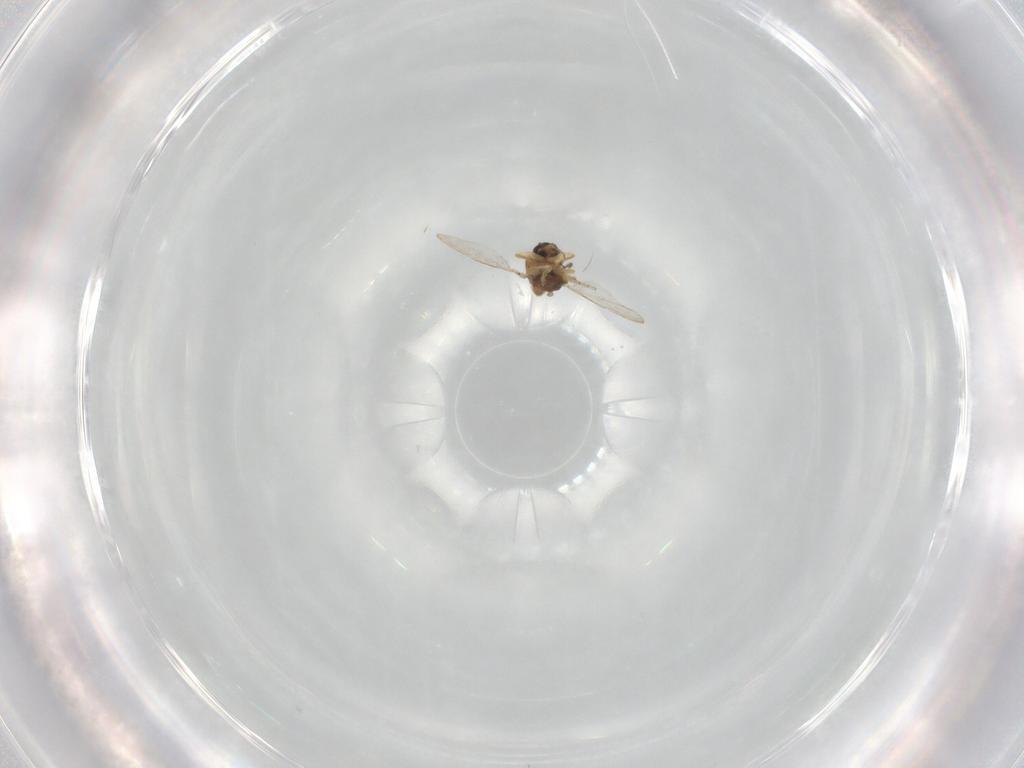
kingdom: Animalia
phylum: Arthropoda
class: Insecta
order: Diptera
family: Ceratopogonidae
